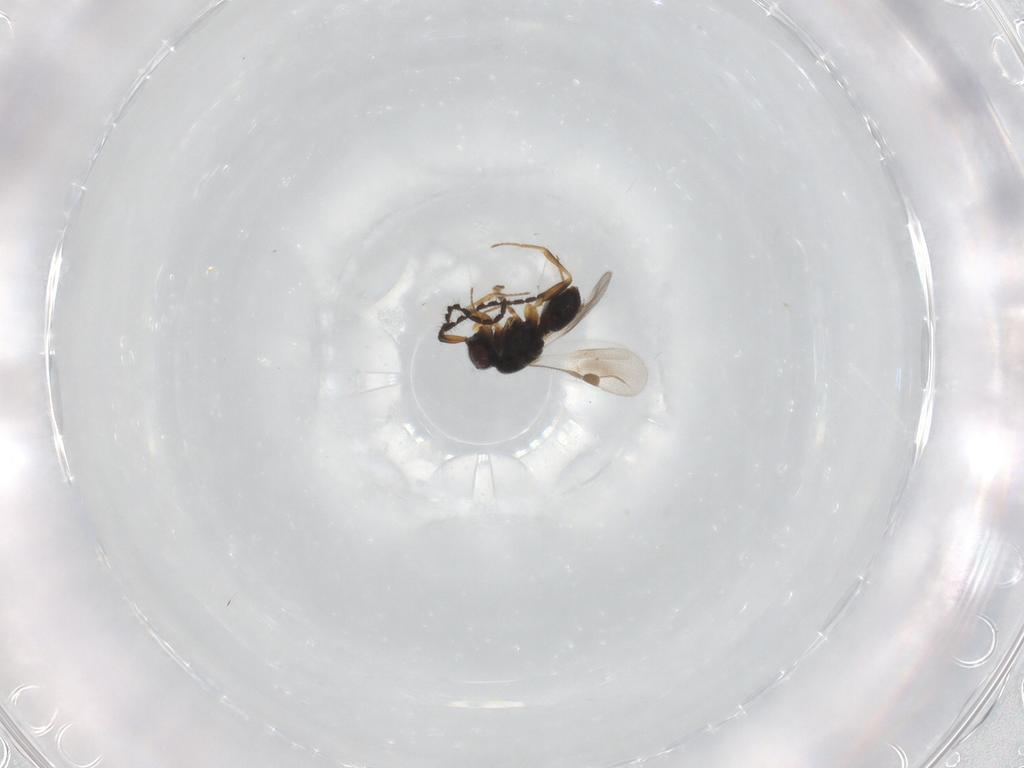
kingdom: Animalia
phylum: Arthropoda
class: Insecta
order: Hymenoptera
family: Megaspilidae
